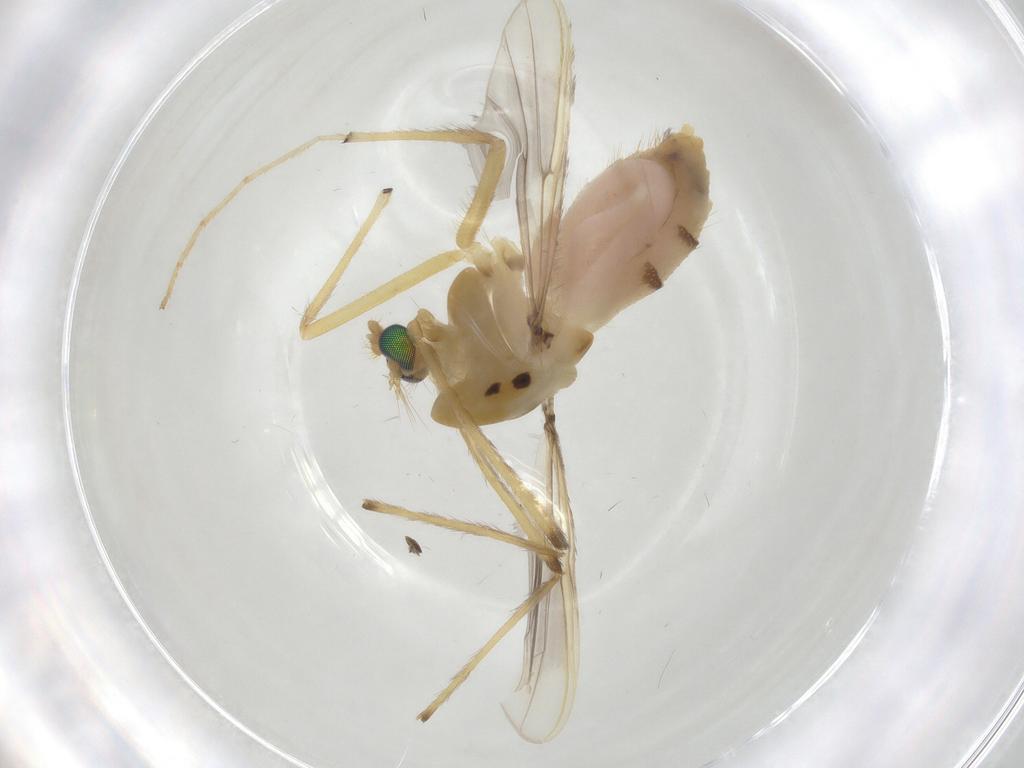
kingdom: Animalia
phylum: Arthropoda
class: Insecta
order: Diptera
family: Chironomidae
